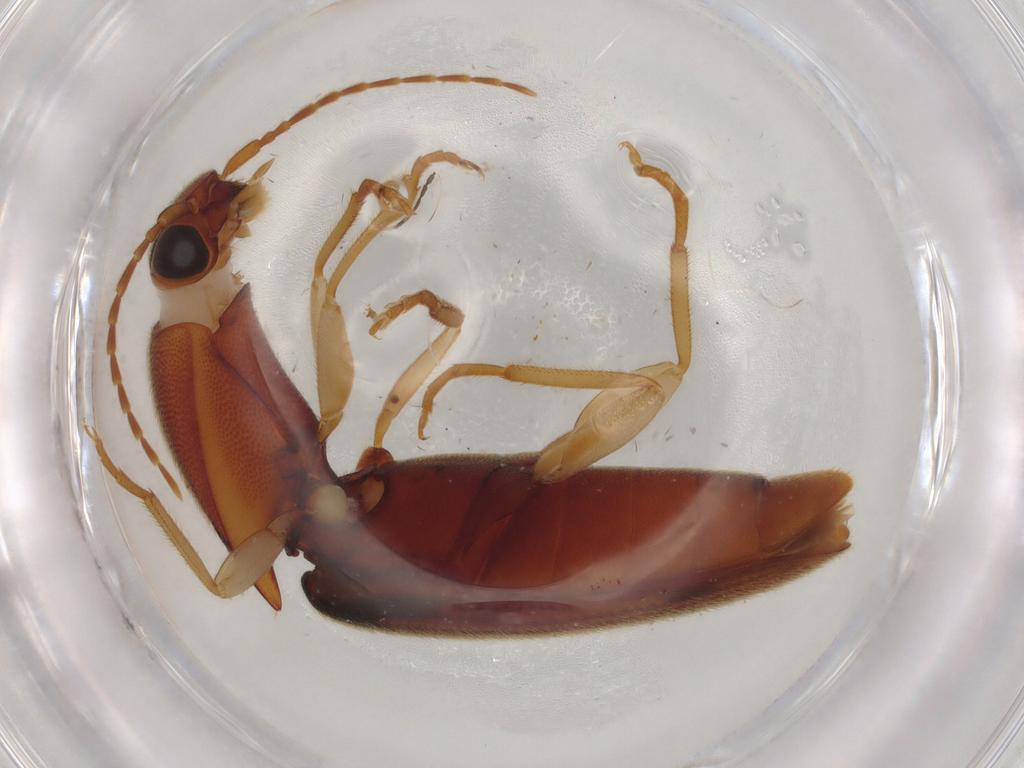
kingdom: Animalia
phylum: Arthropoda
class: Insecta
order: Coleoptera
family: Elateridae
